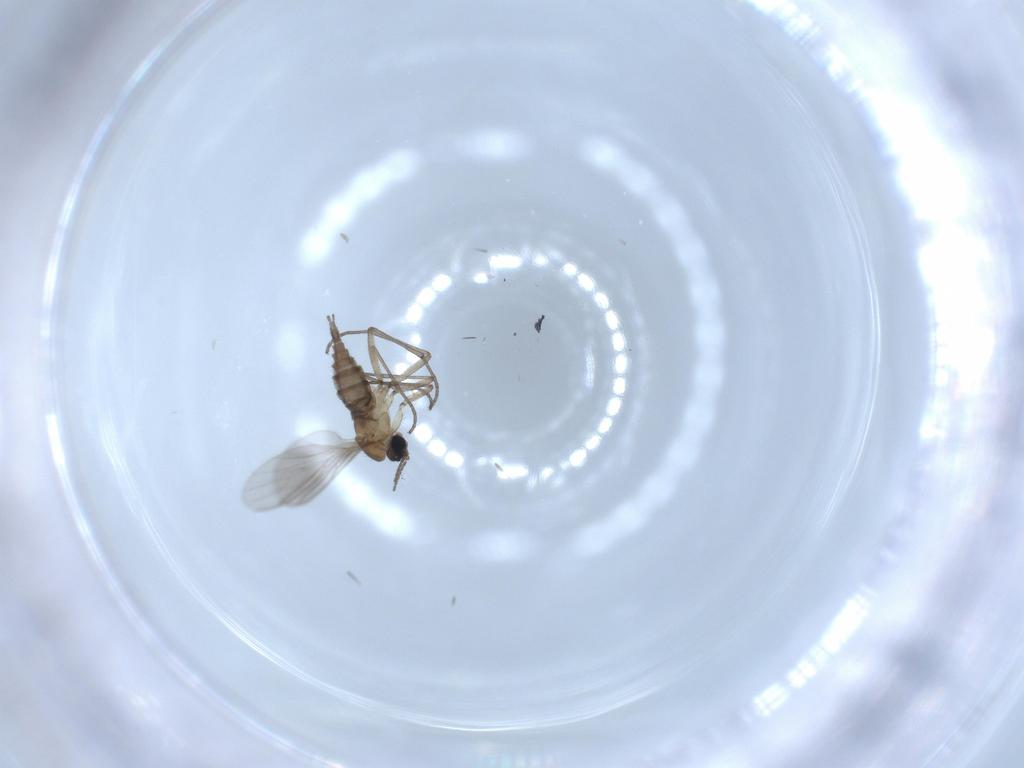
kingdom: Animalia
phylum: Arthropoda
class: Insecta
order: Diptera
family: Sciaridae
